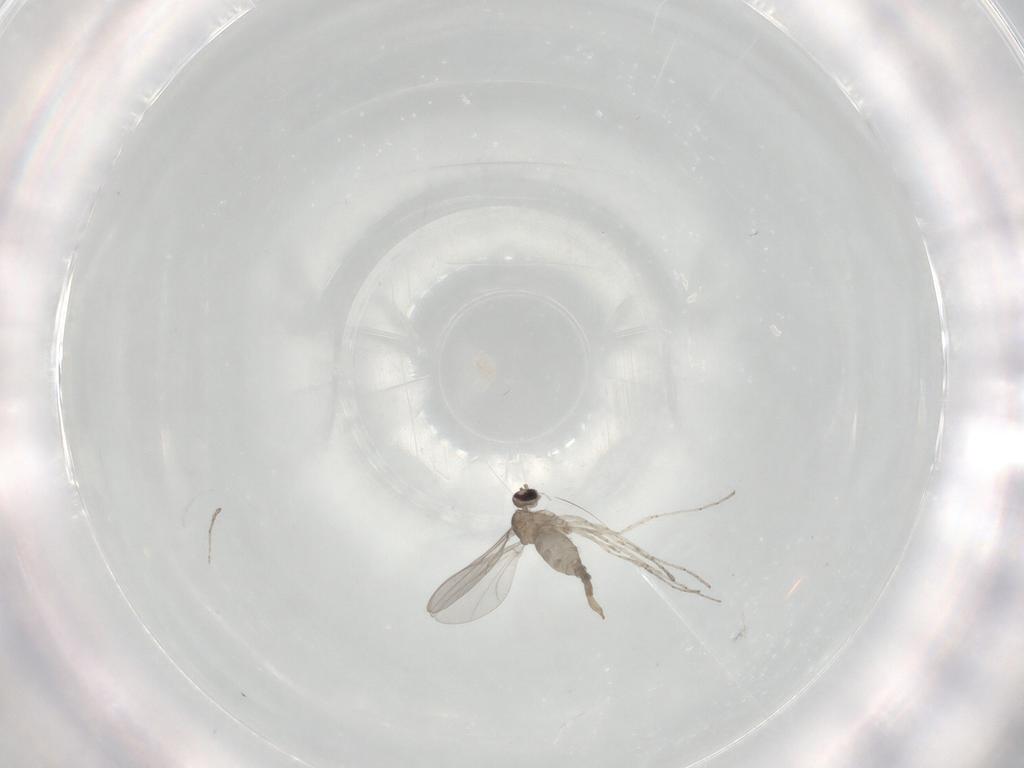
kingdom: Animalia
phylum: Arthropoda
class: Insecta
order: Diptera
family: Cecidomyiidae
